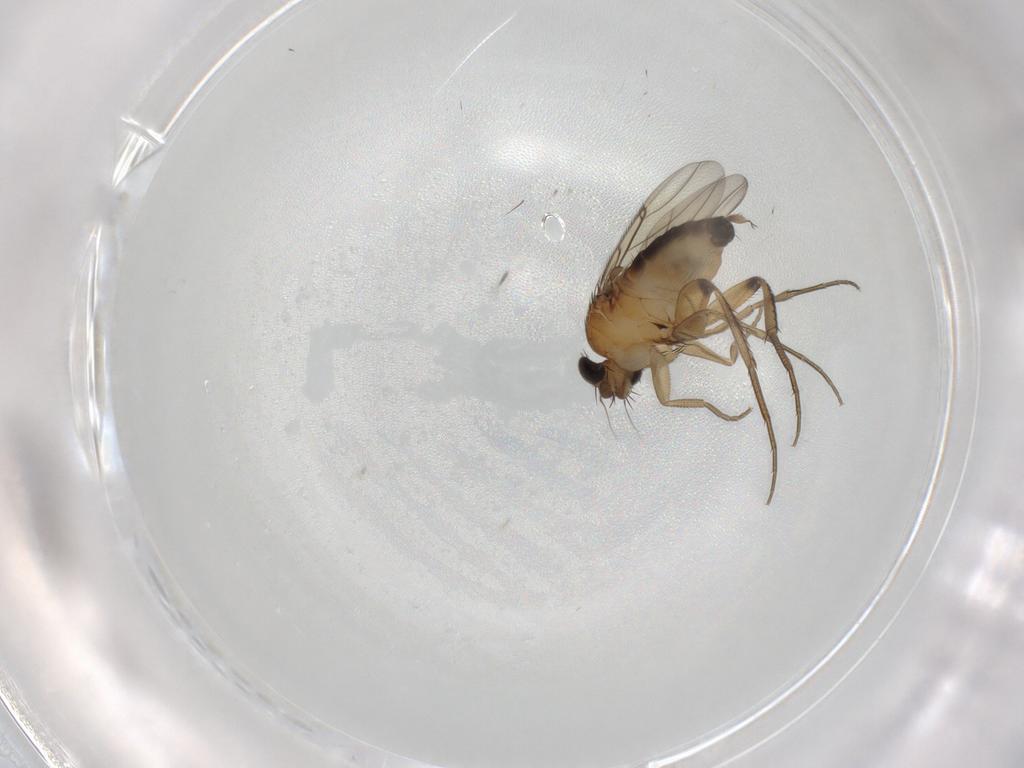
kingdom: Animalia
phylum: Arthropoda
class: Insecta
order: Diptera
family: Phoridae
